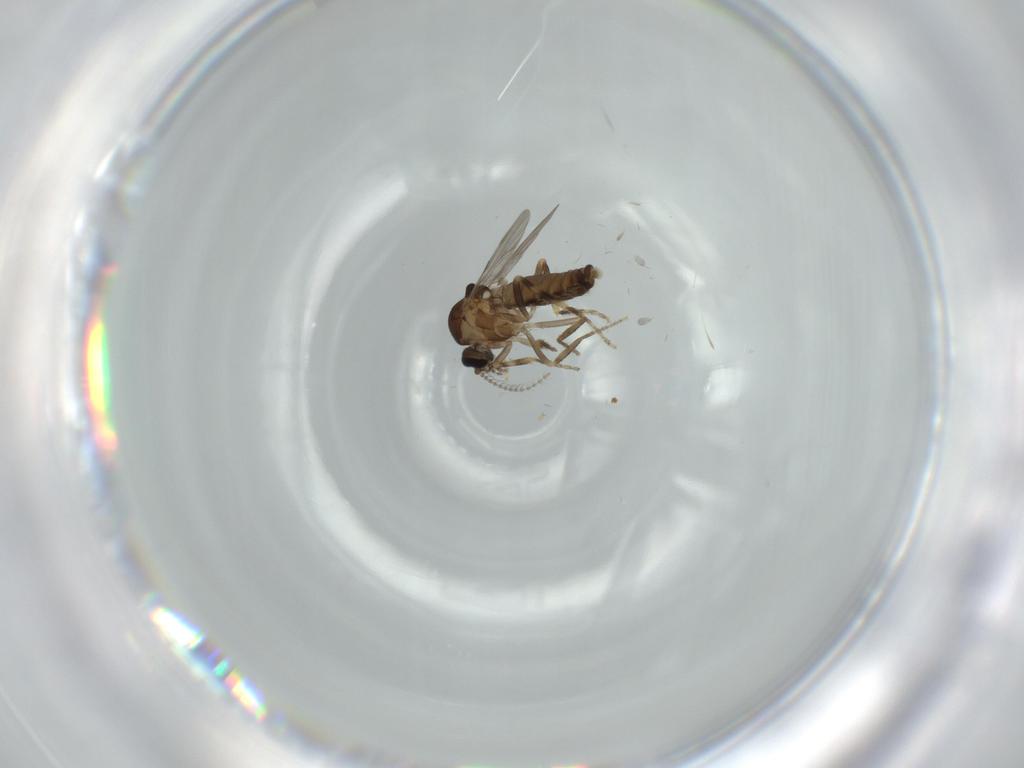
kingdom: Animalia
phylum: Arthropoda
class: Insecta
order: Diptera
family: Ceratopogonidae
